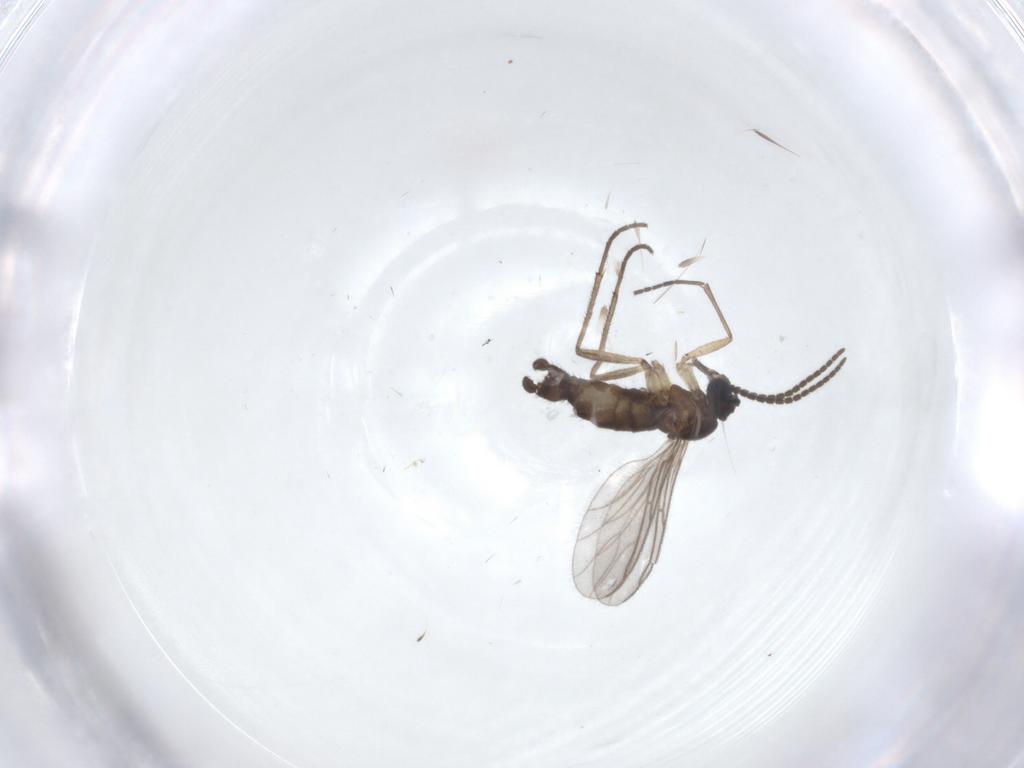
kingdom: Animalia
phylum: Arthropoda
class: Insecta
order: Diptera
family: Sciaridae
